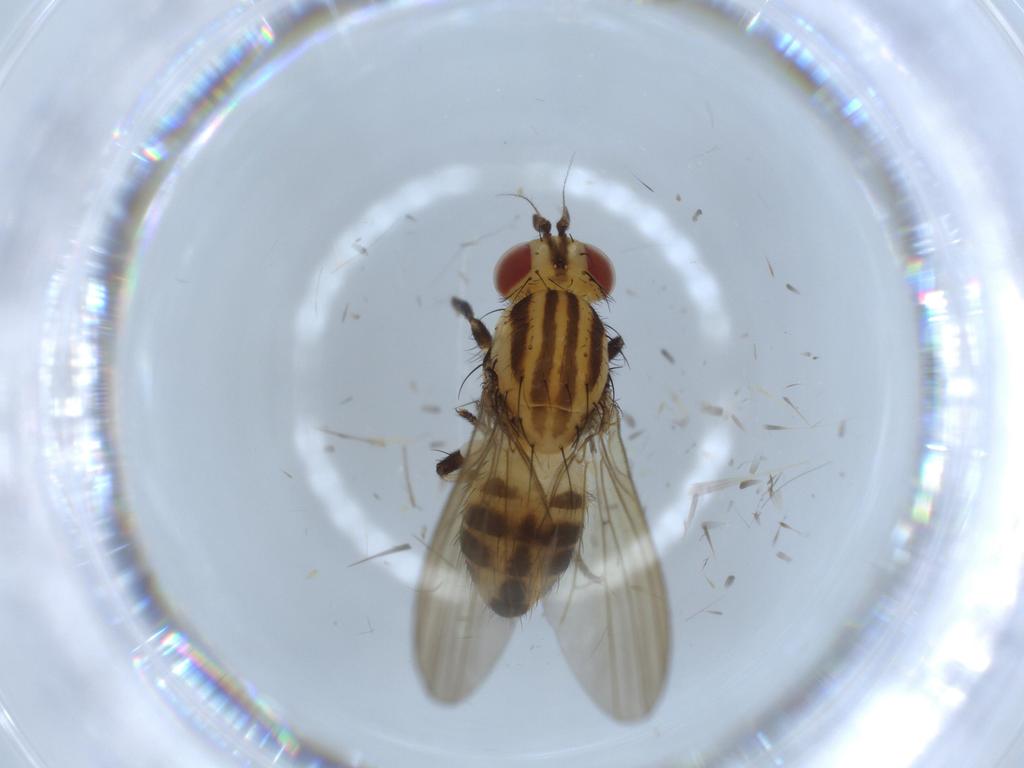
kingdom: Animalia
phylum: Arthropoda
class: Insecta
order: Diptera
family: Lauxaniidae
